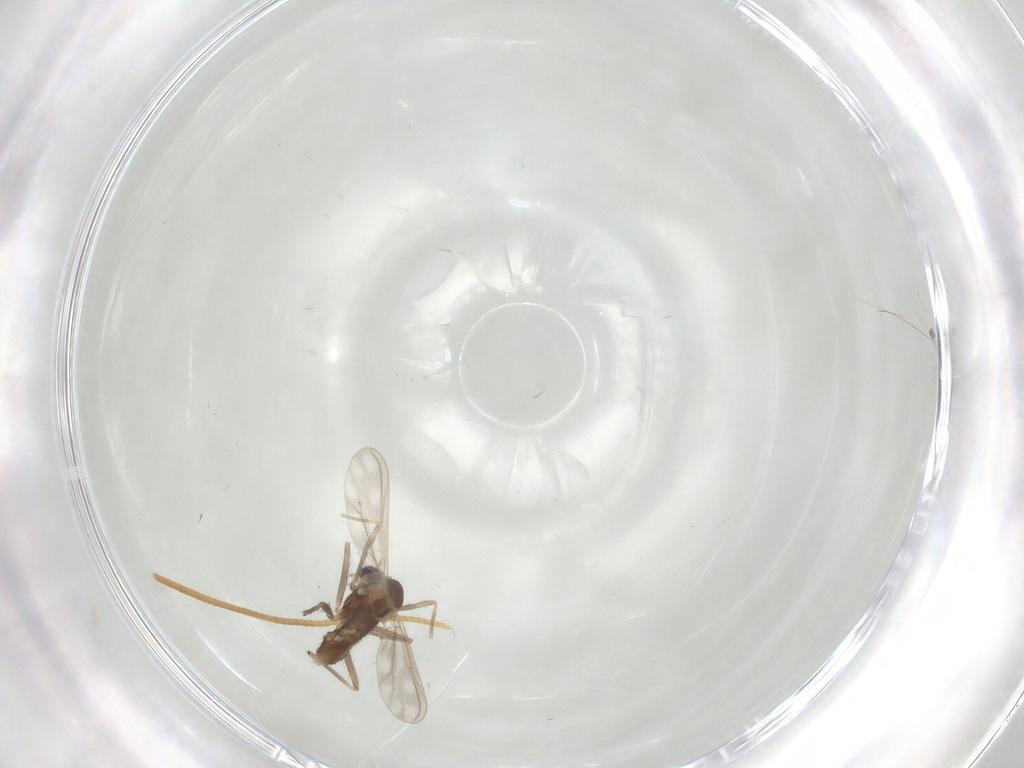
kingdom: Animalia
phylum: Arthropoda
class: Insecta
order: Diptera
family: Chironomidae
